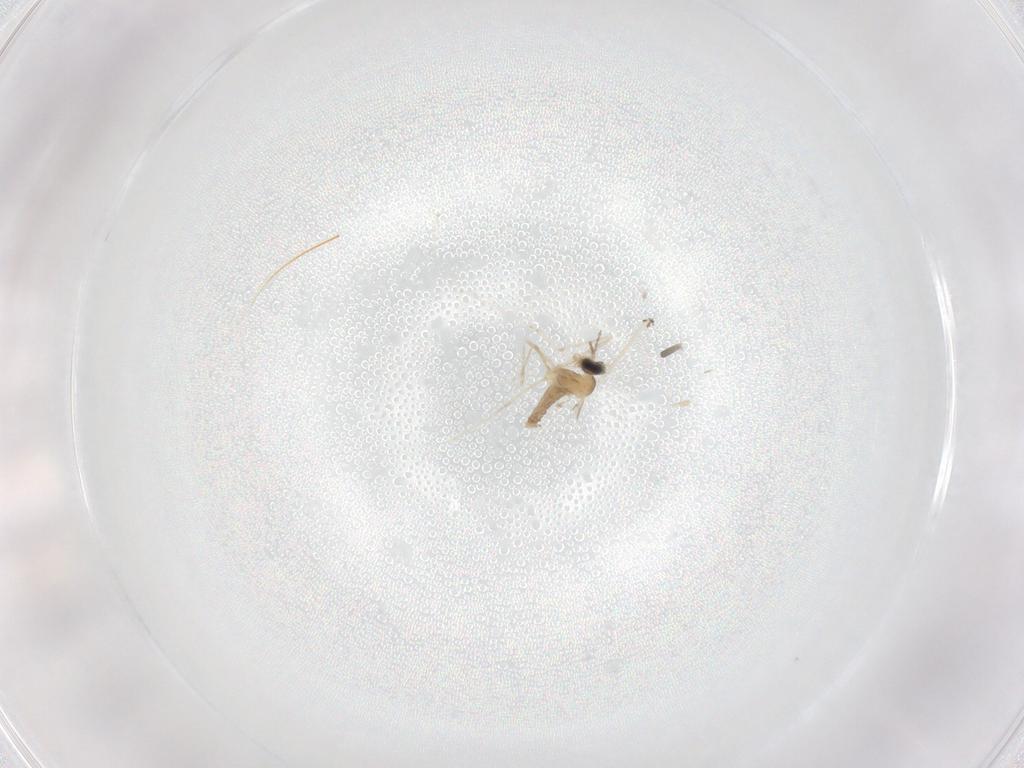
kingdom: Animalia
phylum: Arthropoda
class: Insecta
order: Diptera
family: Cecidomyiidae
